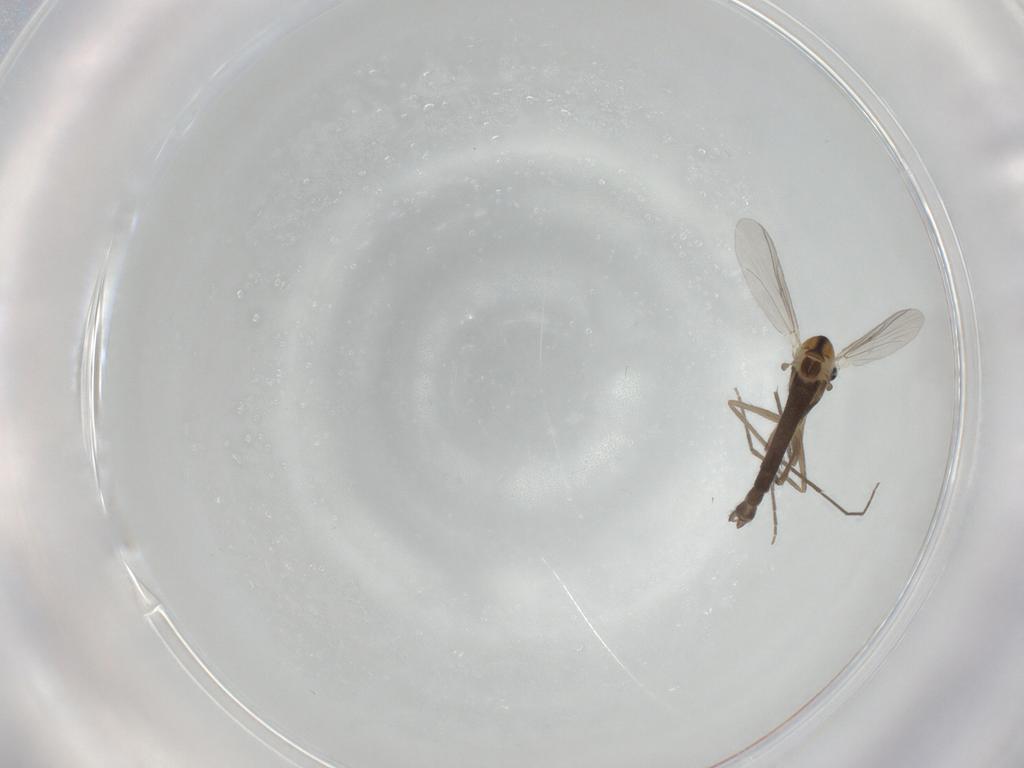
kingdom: Animalia
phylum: Arthropoda
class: Insecta
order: Diptera
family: Chironomidae
